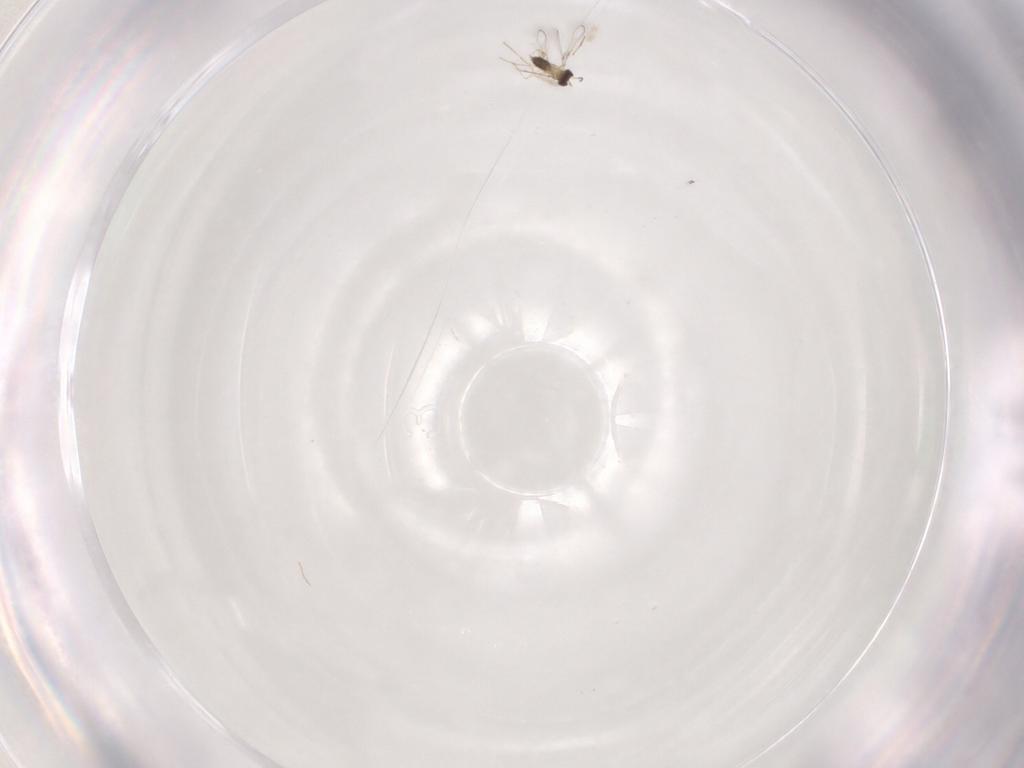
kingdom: Animalia
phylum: Arthropoda
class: Insecta
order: Hymenoptera
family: Mymaridae
